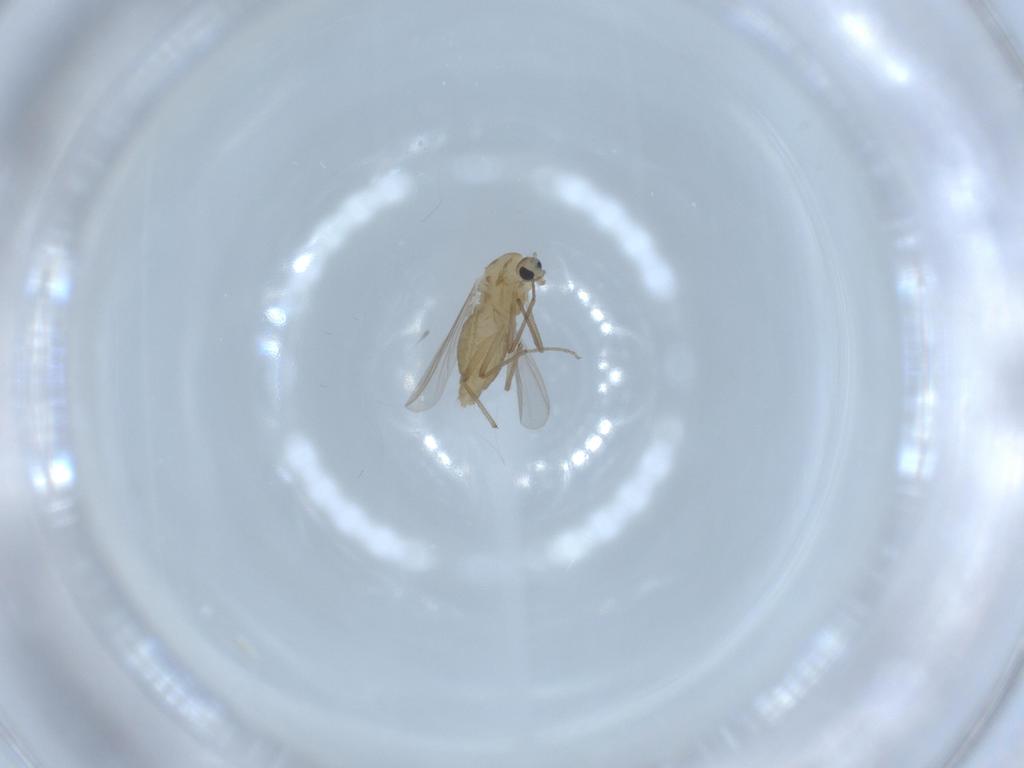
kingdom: Animalia
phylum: Arthropoda
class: Insecta
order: Diptera
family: Chironomidae
